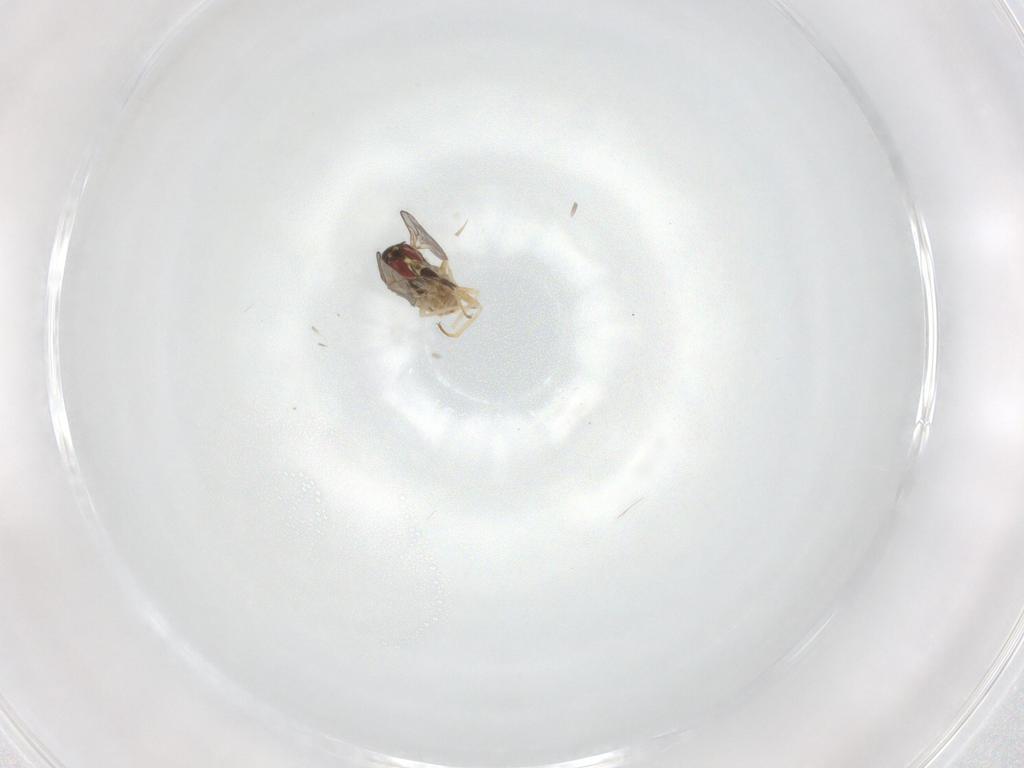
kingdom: Animalia
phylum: Arthropoda
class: Insecta
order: Diptera
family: Bombyliidae
